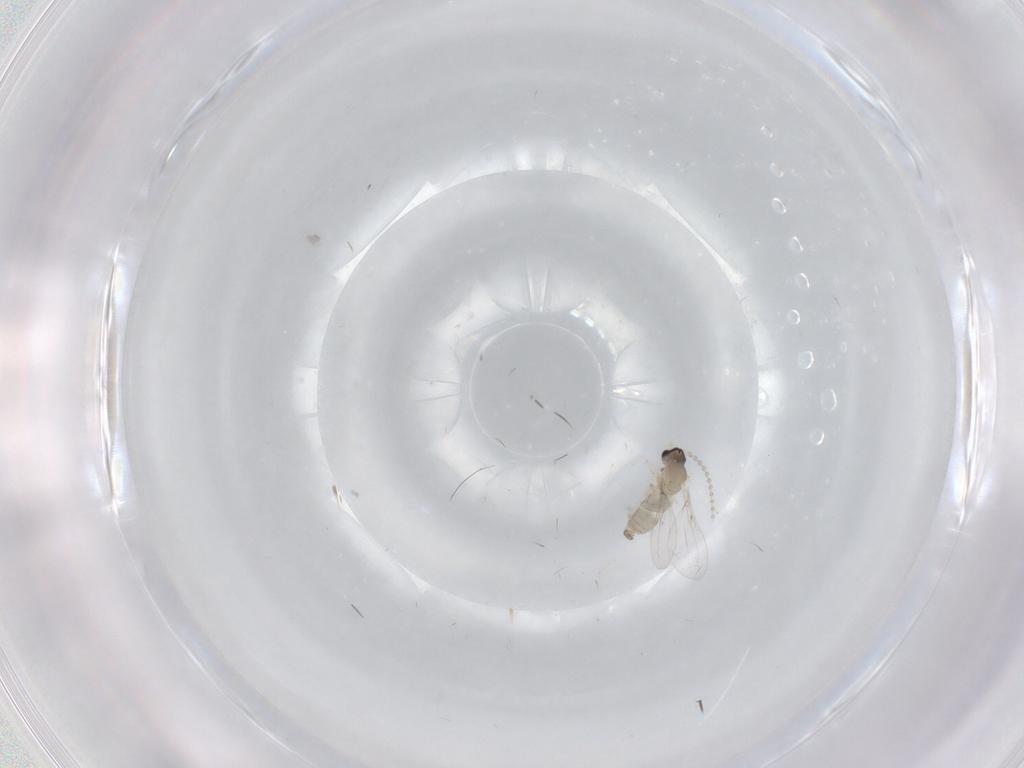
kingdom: Animalia
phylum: Arthropoda
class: Insecta
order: Diptera
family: Cecidomyiidae
